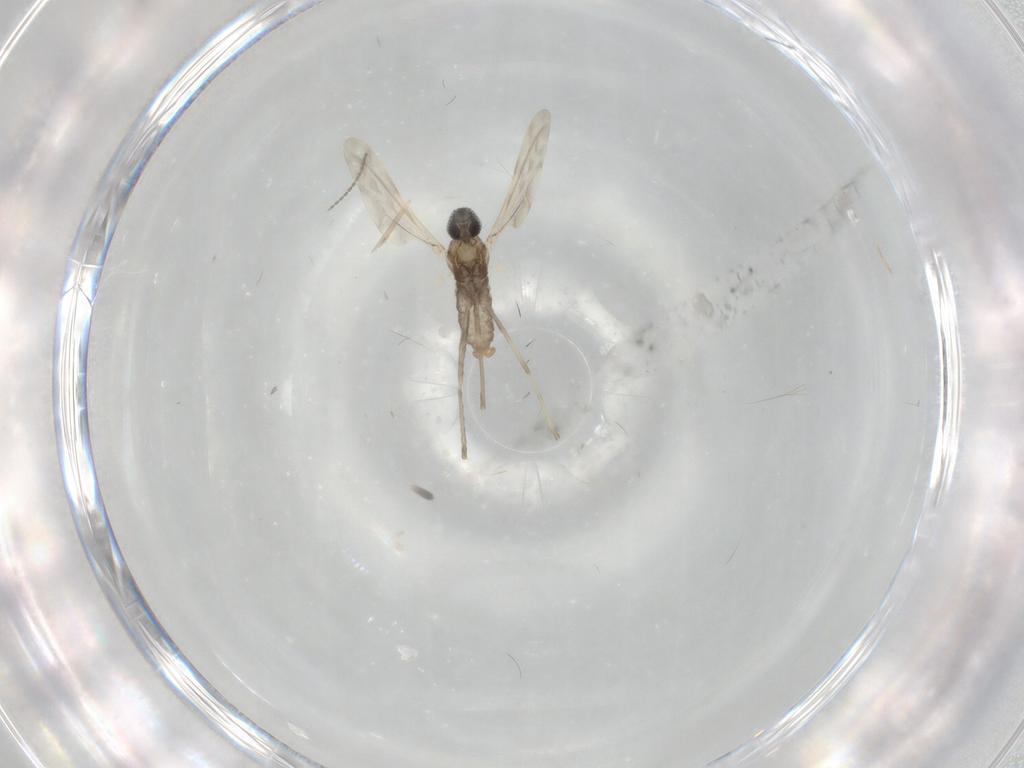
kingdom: Animalia
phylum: Arthropoda
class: Insecta
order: Diptera
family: Cecidomyiidae
